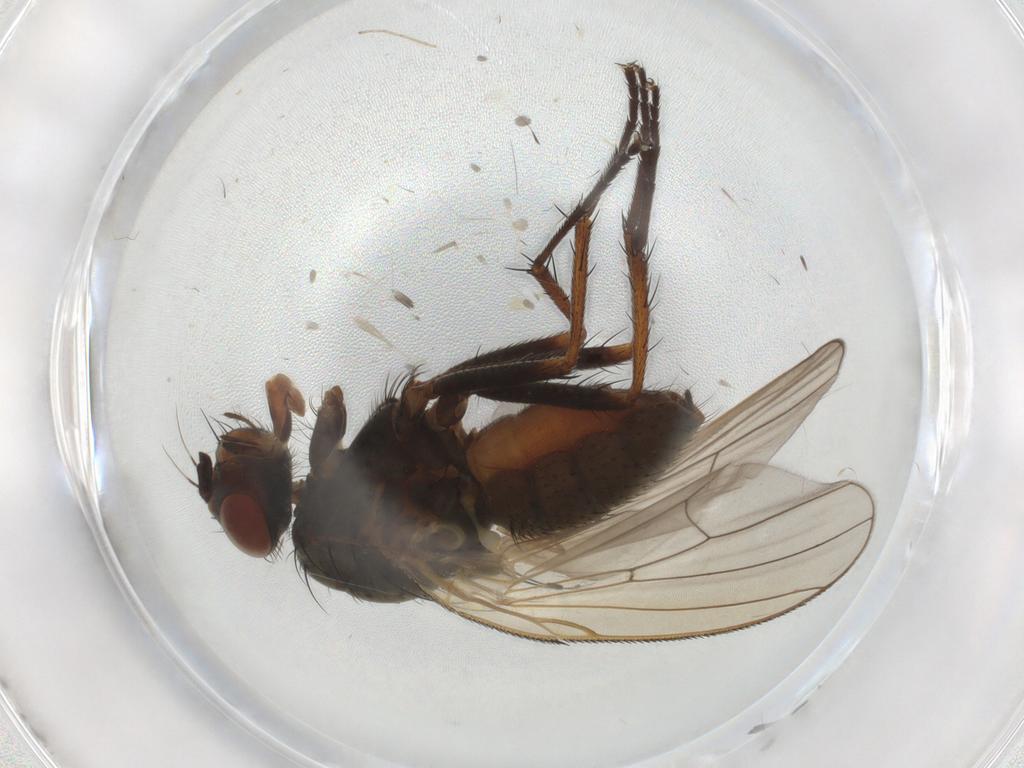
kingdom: Animalia
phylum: Arthropoda
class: Insecta
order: Diptera
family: Anthomyiidae
